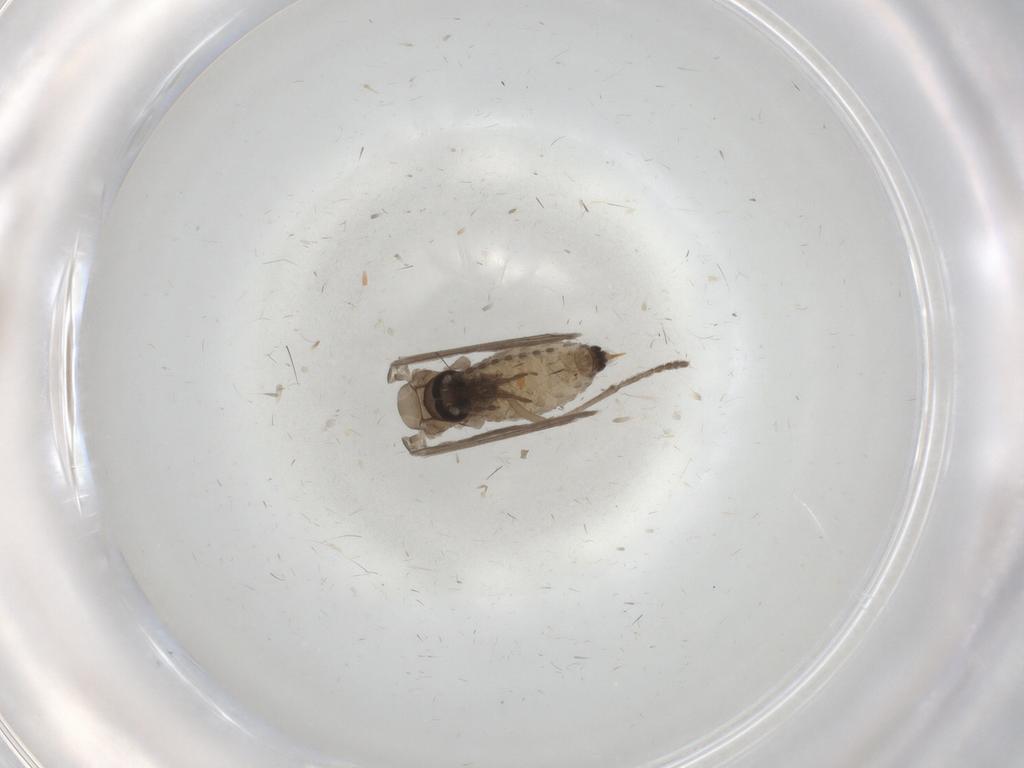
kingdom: Animalia
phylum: Arthropoda
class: Insecta
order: Diptera
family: Psychodidae
